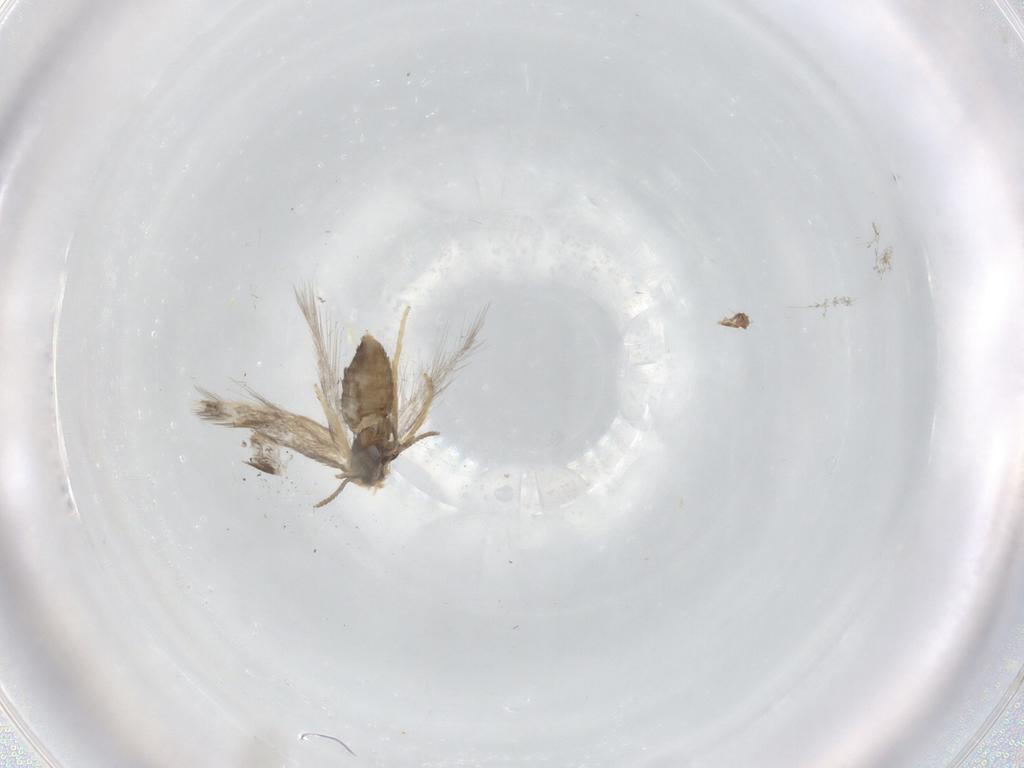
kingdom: Animalia
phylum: Arthropoda
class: Insecta
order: Lepidoptera
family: Nepticulidae
